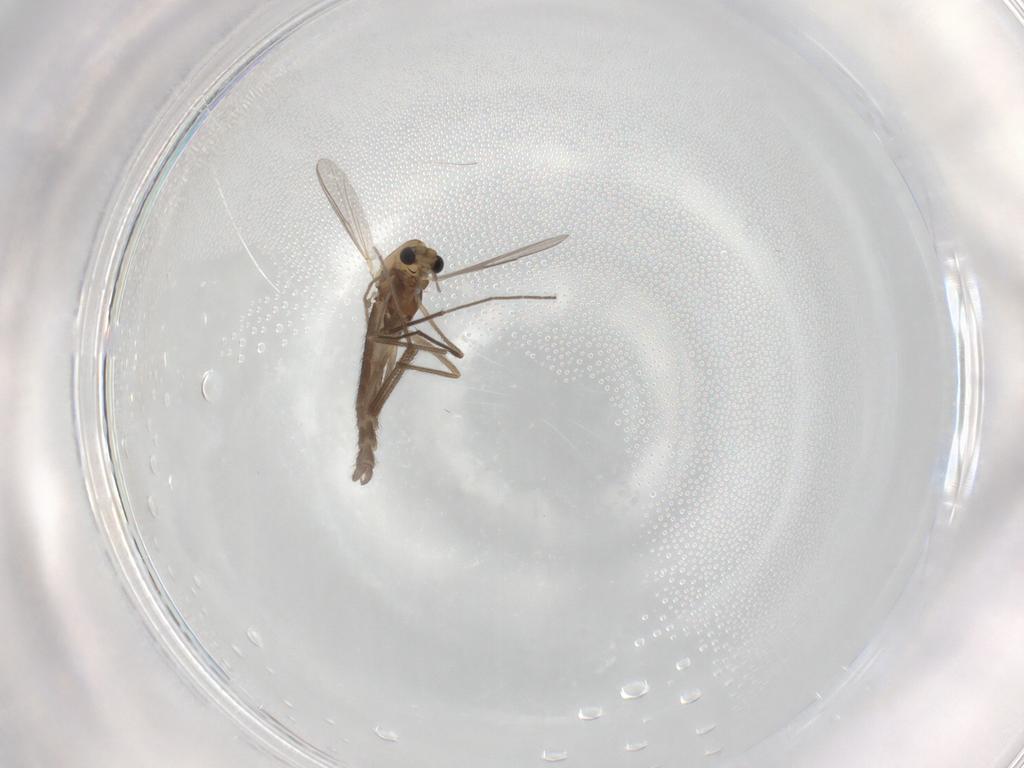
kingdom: Animalia
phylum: Arthropoda
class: Insecta
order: Diptera
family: Chironomidae
